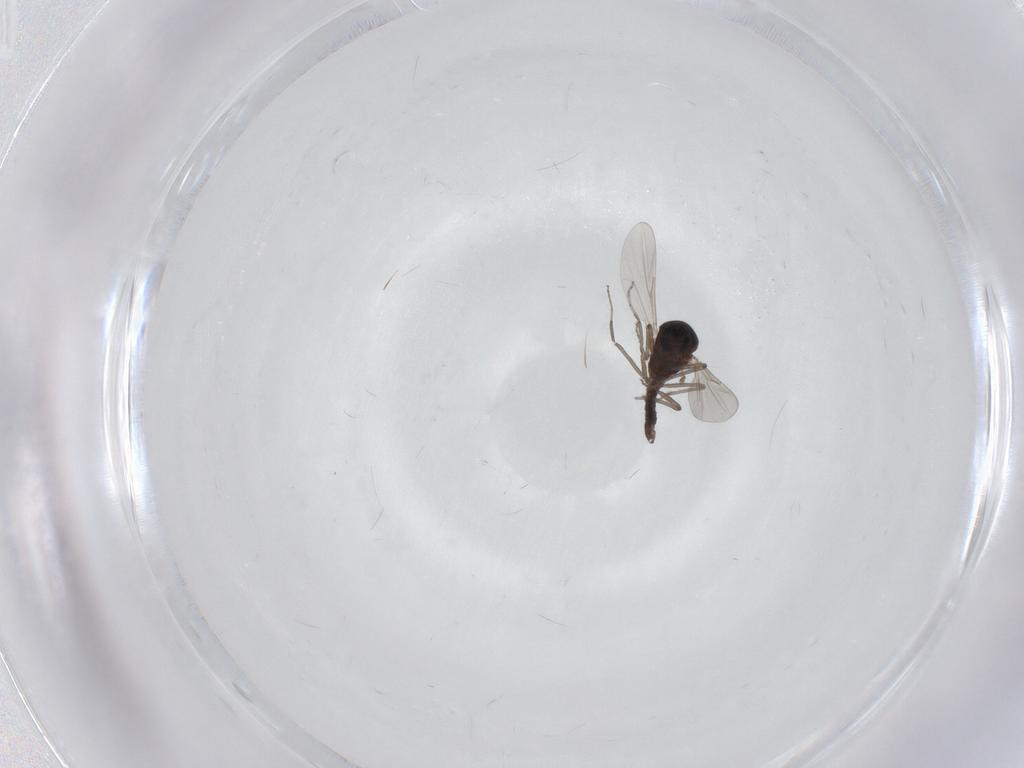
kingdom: Animalia
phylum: Arthropoda
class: Insecta
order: Diptera
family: Ceratopogonidae
